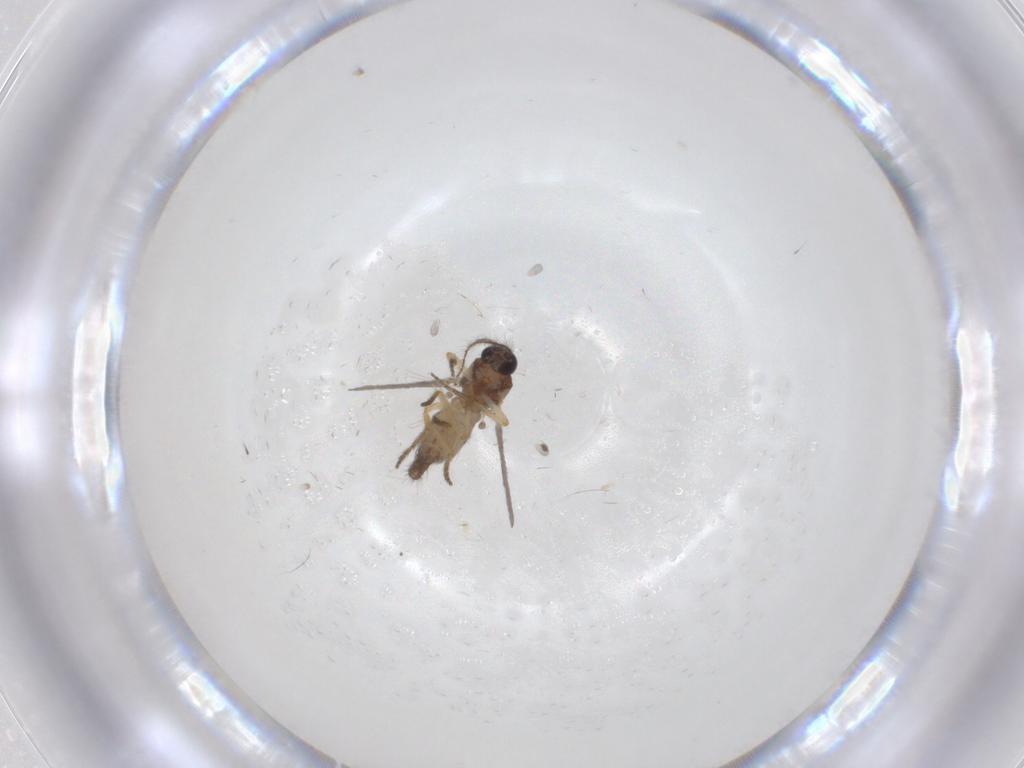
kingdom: Animalia
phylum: Arthropoda
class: Insecta
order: Diptera
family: Ceratopogonidae
